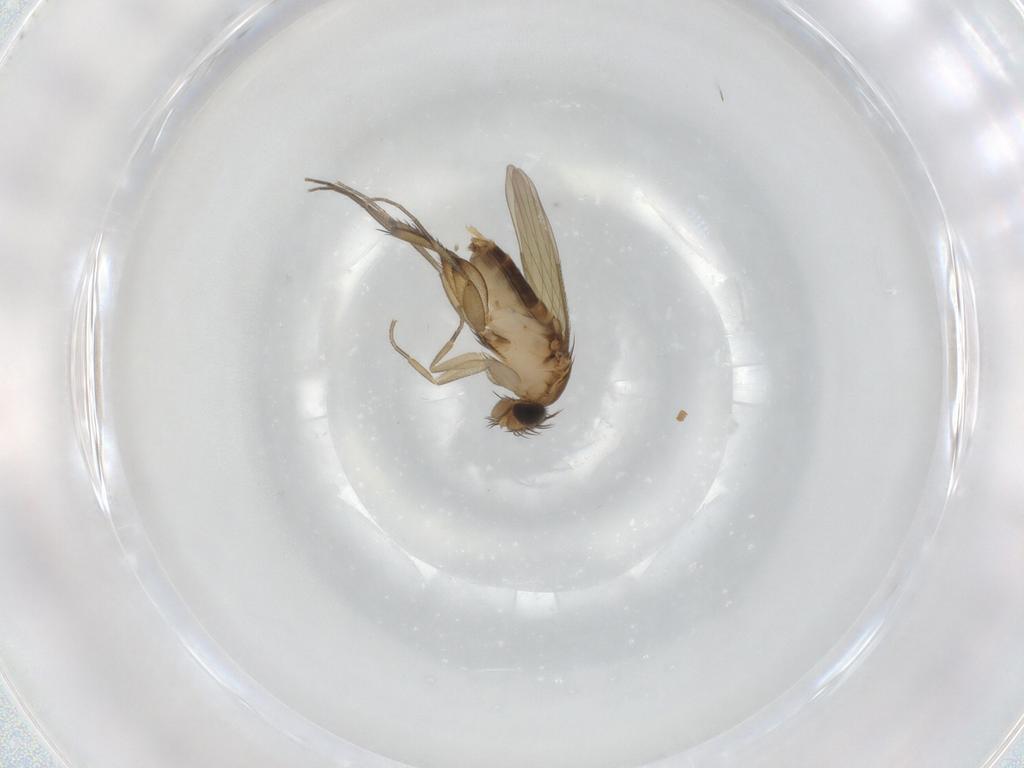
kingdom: Animalia
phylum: Arthropoda
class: Insecta
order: Diptera
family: Phoridae
